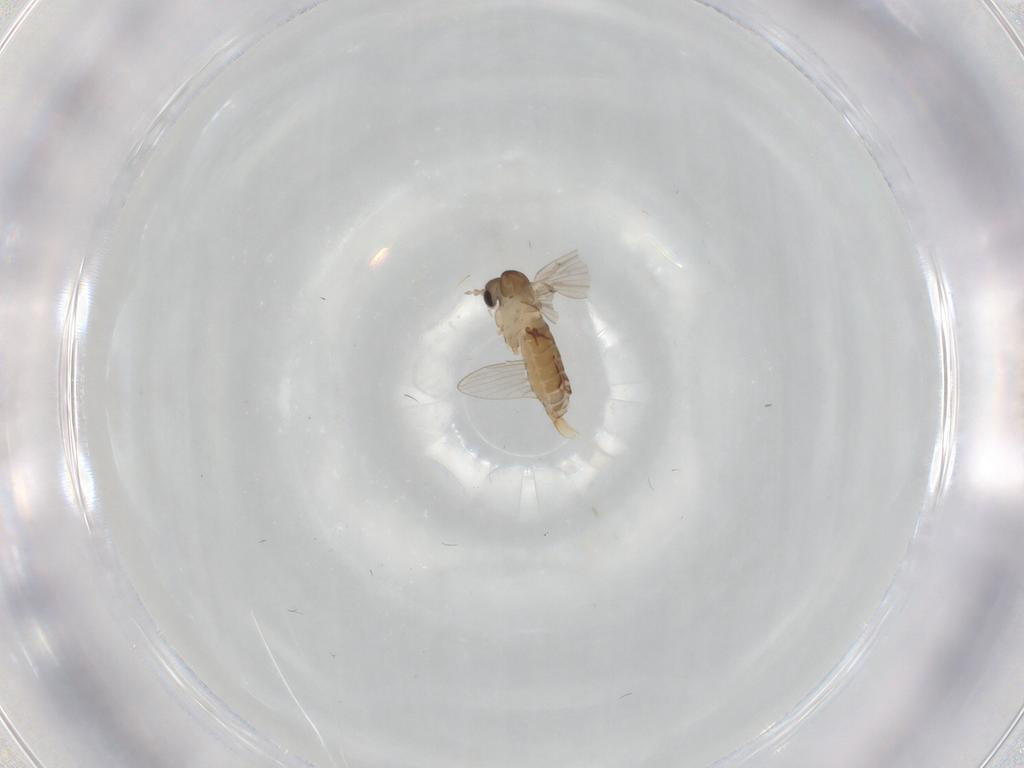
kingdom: Animalia
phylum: Arthropoda
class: Insecta
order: Diptera
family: Psychodidae
